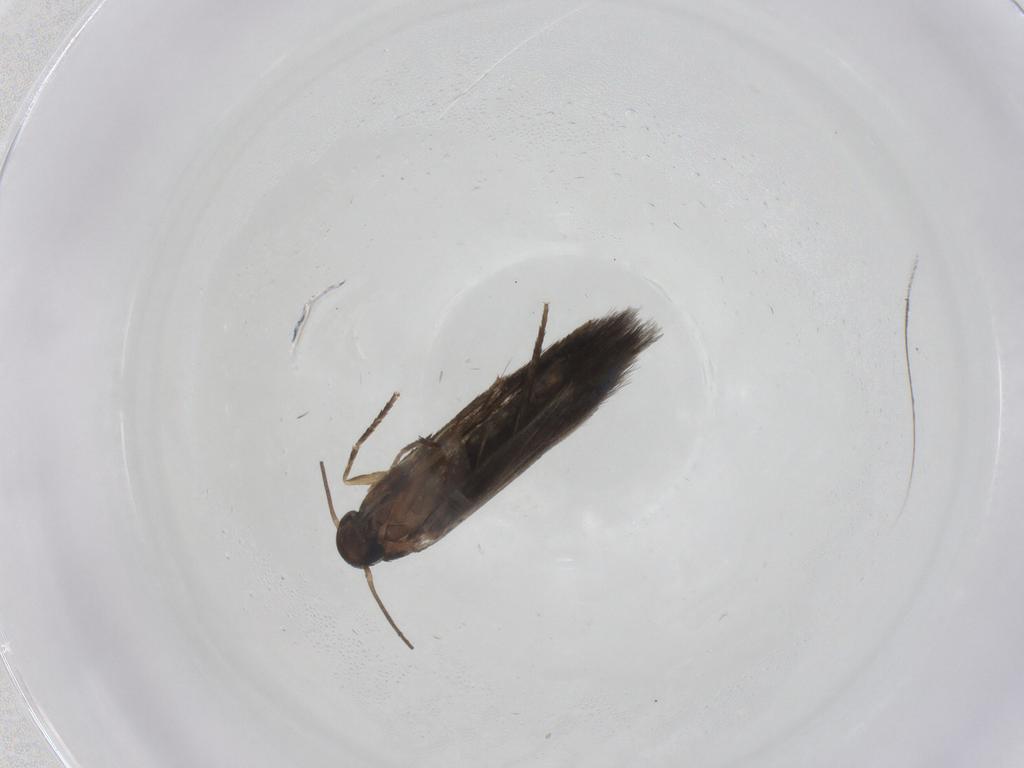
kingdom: Animalia
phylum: Arthropoda
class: Insecta
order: Lepidoptera
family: Heliozelidae
